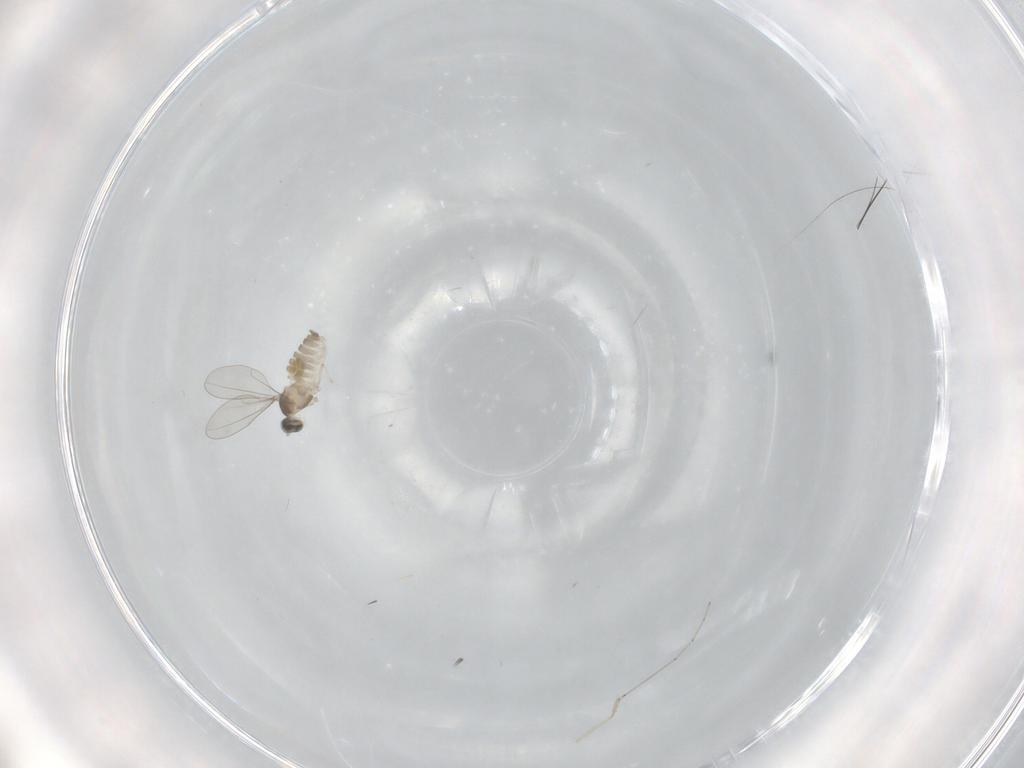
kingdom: Animalia
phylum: Arthropoda
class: Insecta
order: Diptera
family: Cecidomyiidae
